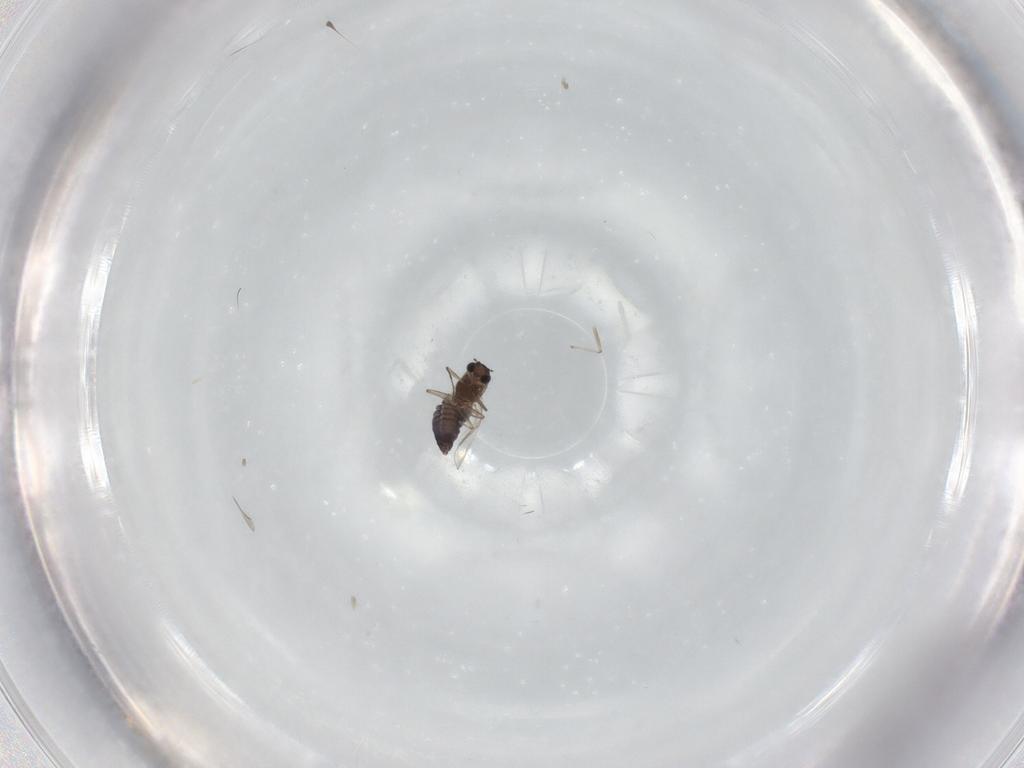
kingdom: Animalia
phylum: Arthropoda
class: Insecta
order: Diptera
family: Chironomidae
